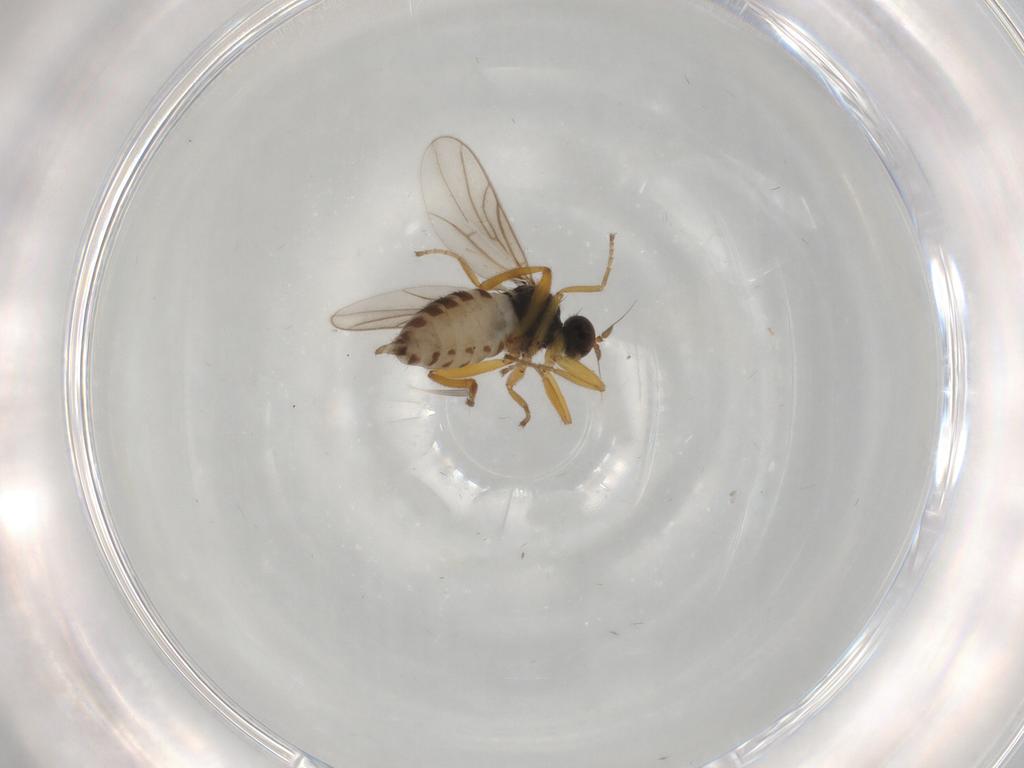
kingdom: Animalia
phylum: Arthropoda
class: Insecta
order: Diptera
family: Hybotidae
